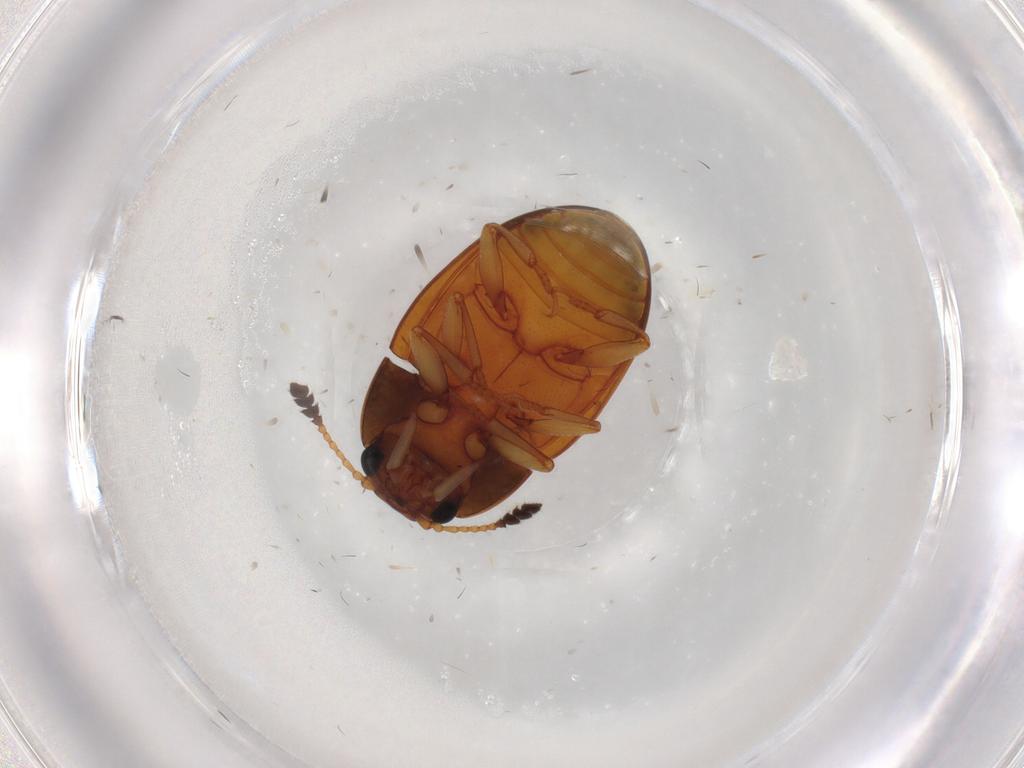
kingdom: Animalia
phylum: Arthropoda
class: Insecta
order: Coleoptera
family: Erotylidae
